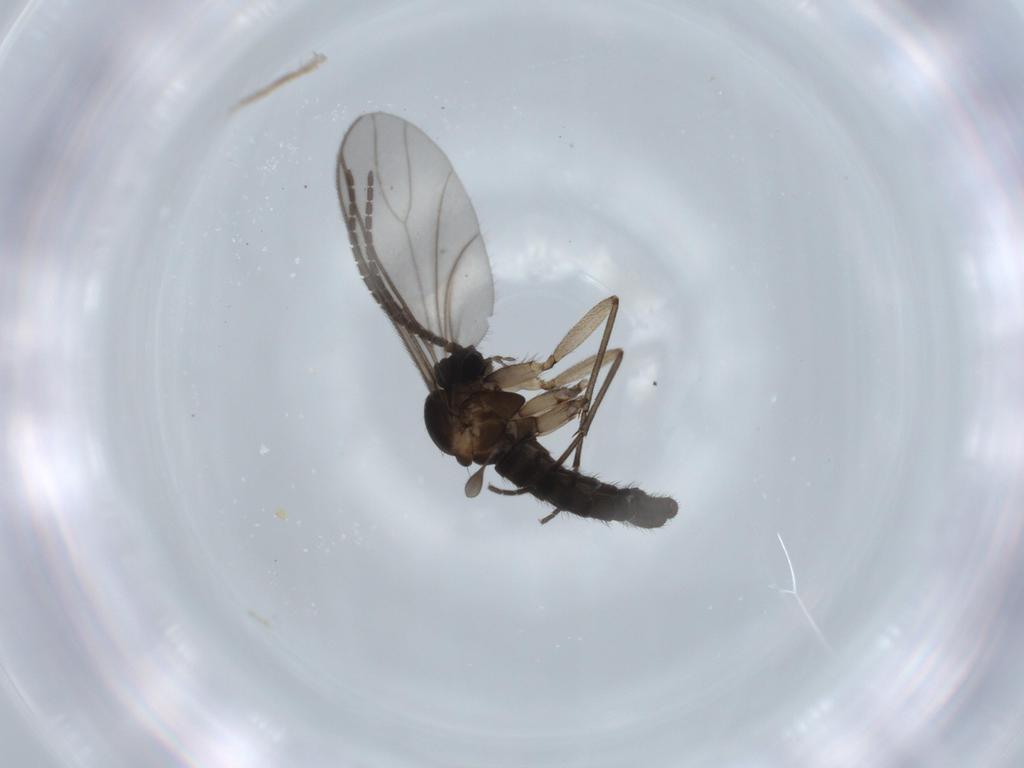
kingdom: Animalia
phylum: Arthropoda
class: Insecta
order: Diptera
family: Sciaridae
